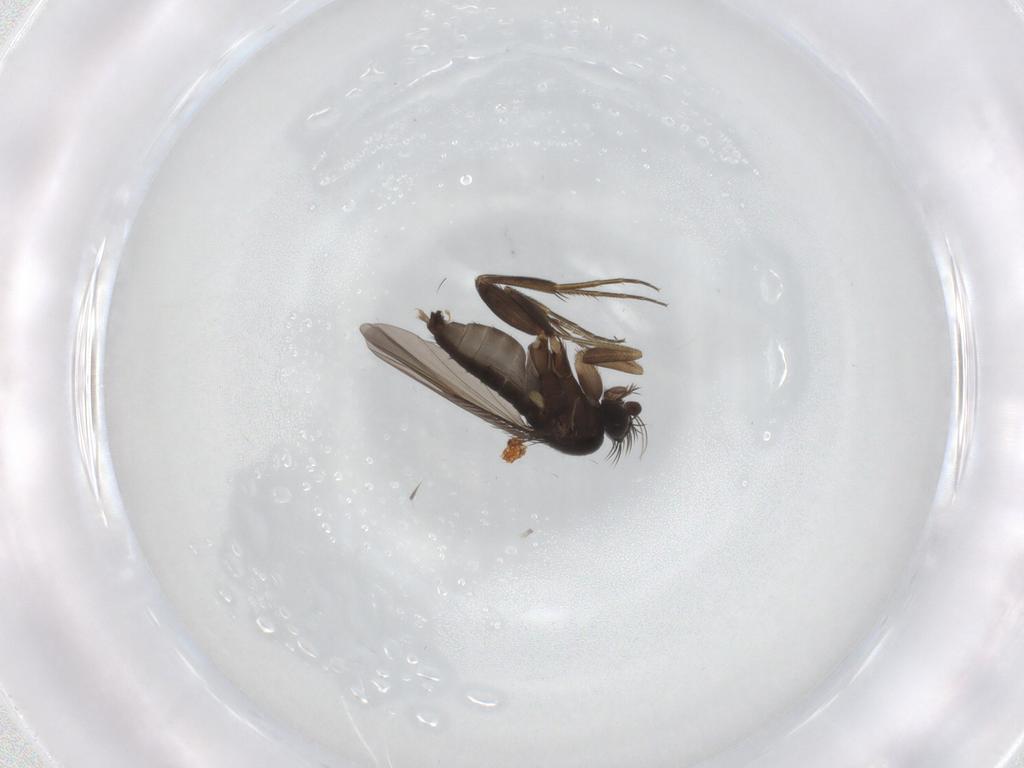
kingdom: Animalia
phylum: Arthropoda
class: Insecta
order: Diptera
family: Phoridae
